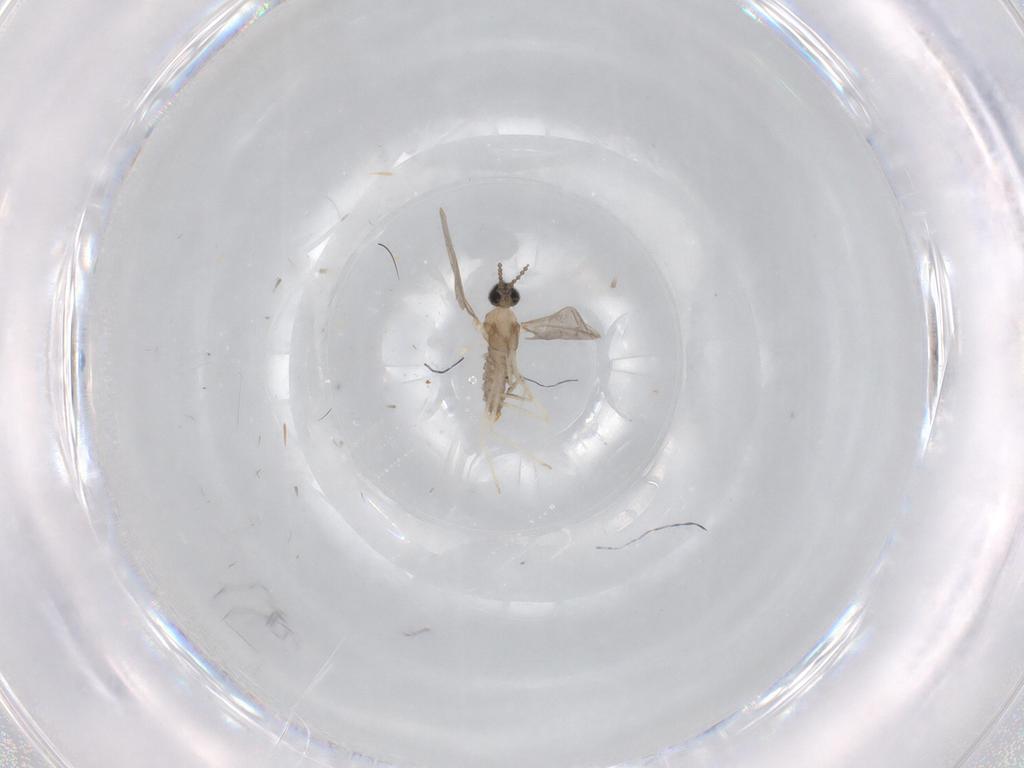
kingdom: Animalia
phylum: Arthropoda
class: Insecta
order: Diptera
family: Cecidomyiidae
